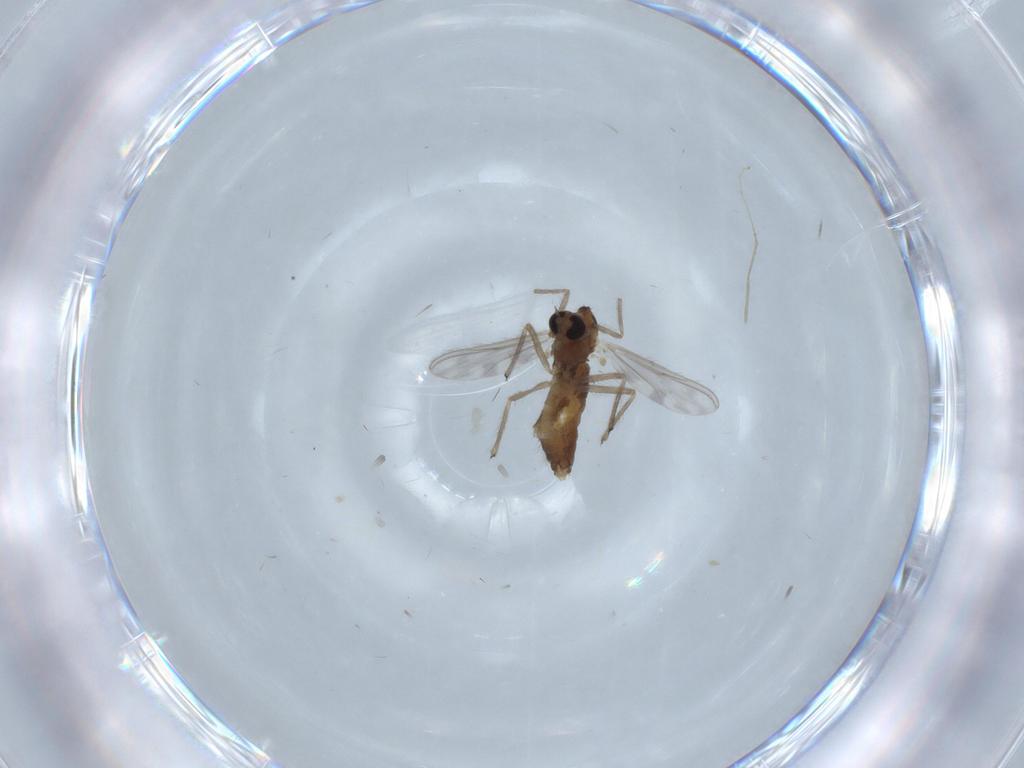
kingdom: Animalia
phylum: Arthropoda
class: Insecta
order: Diptera
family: Chironomidae
